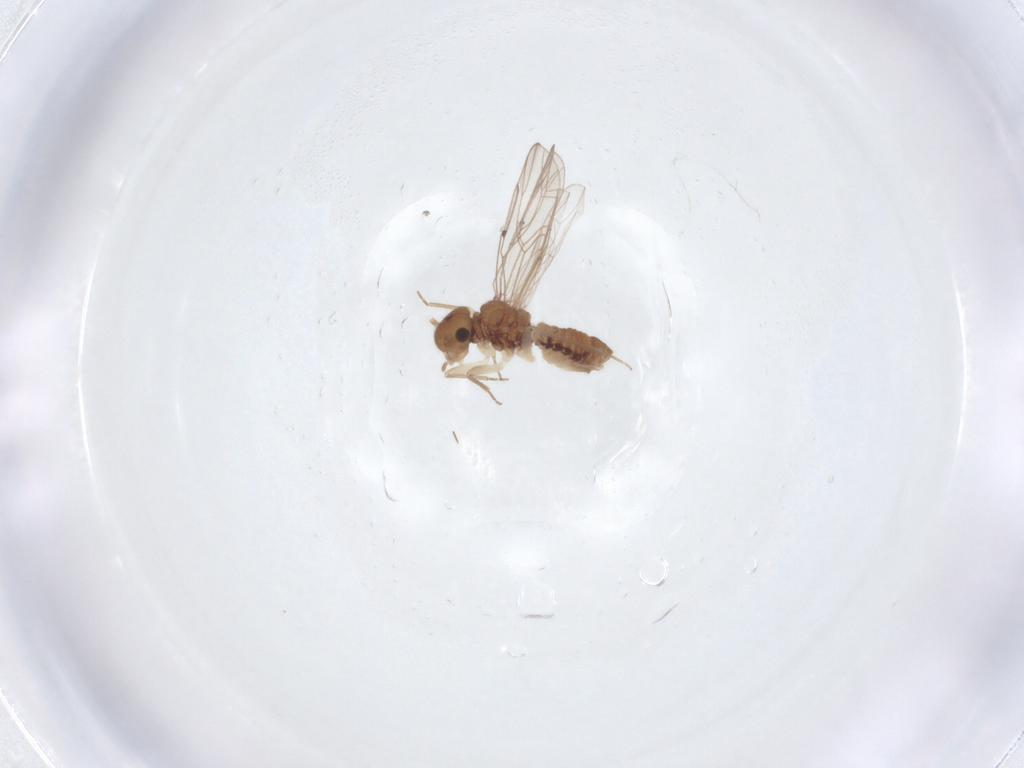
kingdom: Animalia
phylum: Arthropoda
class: Insecta
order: Psocodea
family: Ectopsocidae
